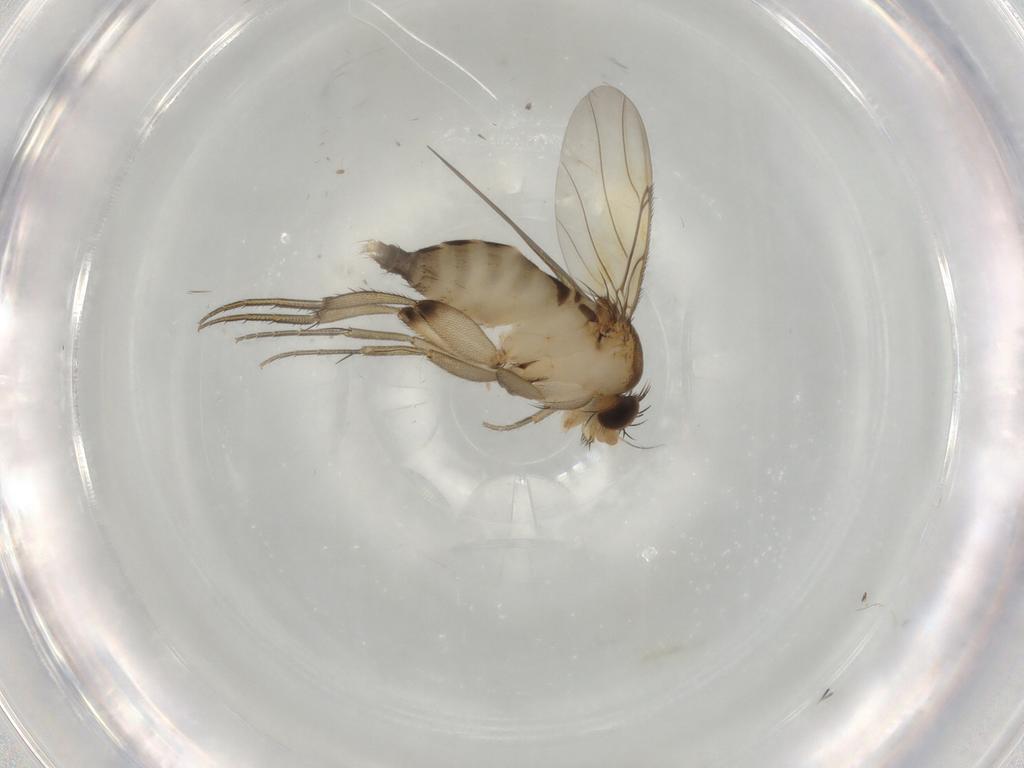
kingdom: Animalia
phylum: Arthropoda
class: Insecta
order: Diptera
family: Phoridae
